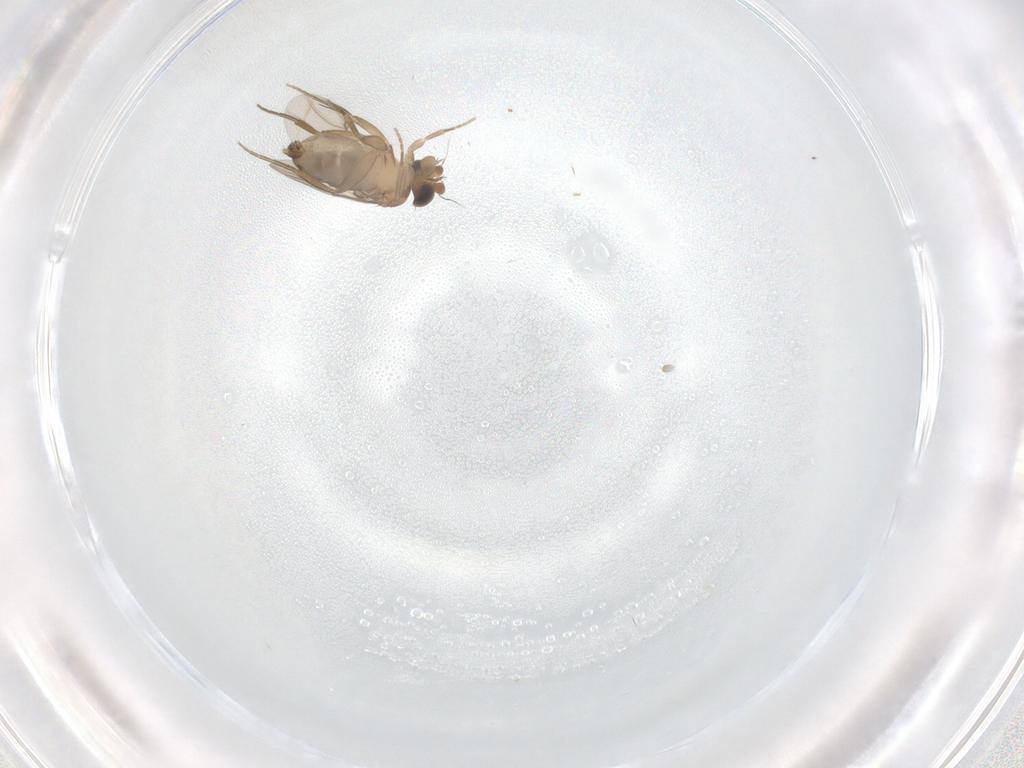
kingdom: Animalia
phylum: Arthropoda
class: Insecta
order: Diptera
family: Phoridae
